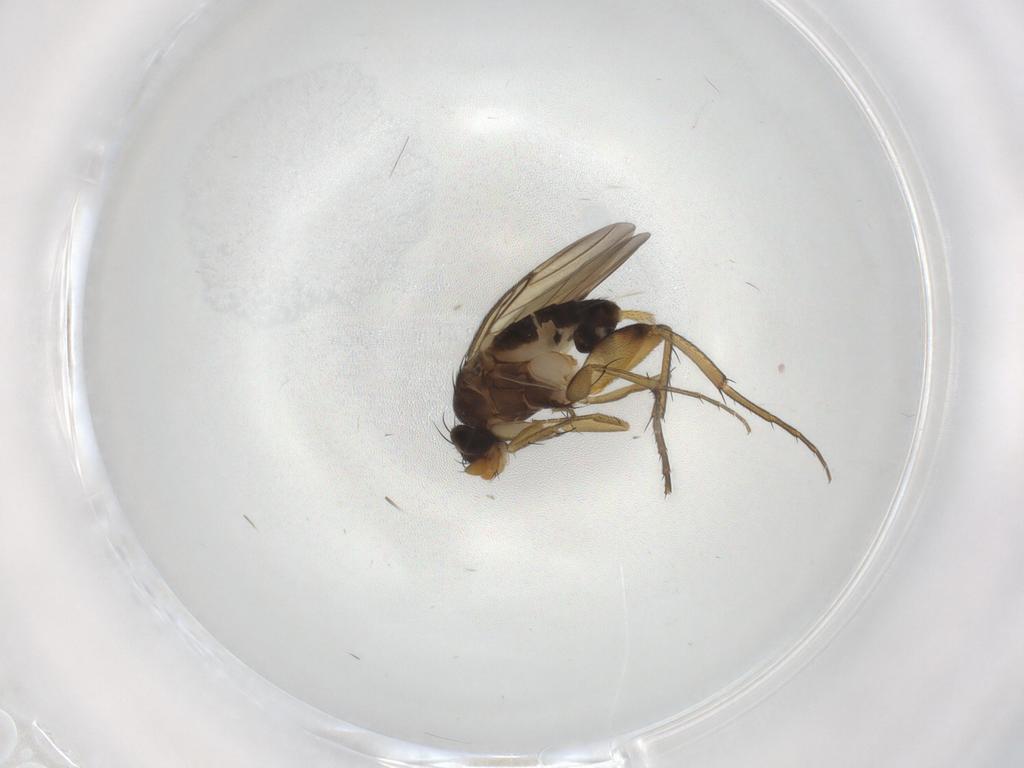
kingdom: Animalia
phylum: Arthropoda
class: Insecta
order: Diptera
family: Phoridae
